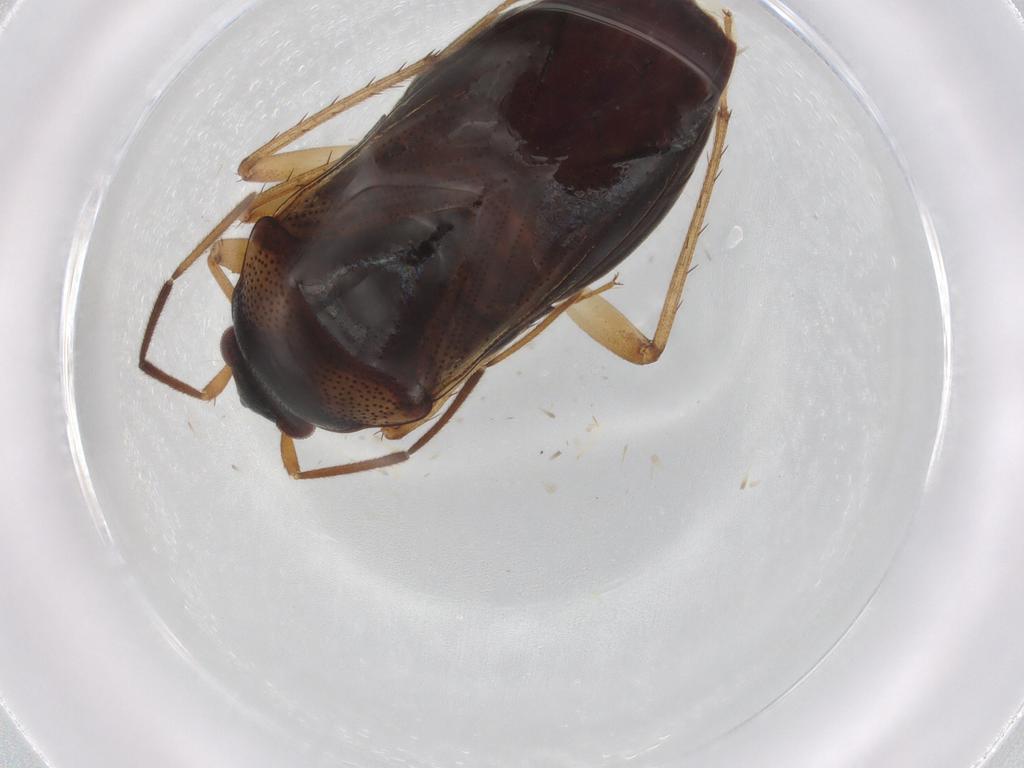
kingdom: Animalia
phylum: Arthropoda
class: Insecta
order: Hemiptera
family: Rhyparochromidae
